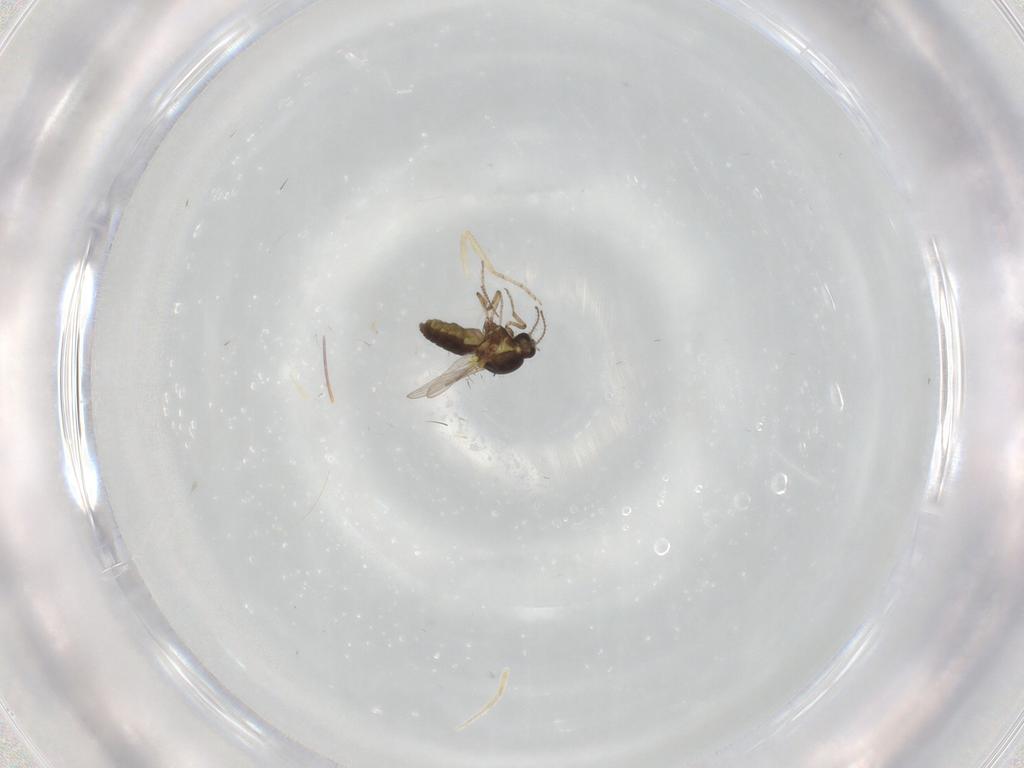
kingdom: Animalia
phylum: Arthropoda
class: Insecta
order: Diptera
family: Ceratopogonidae
